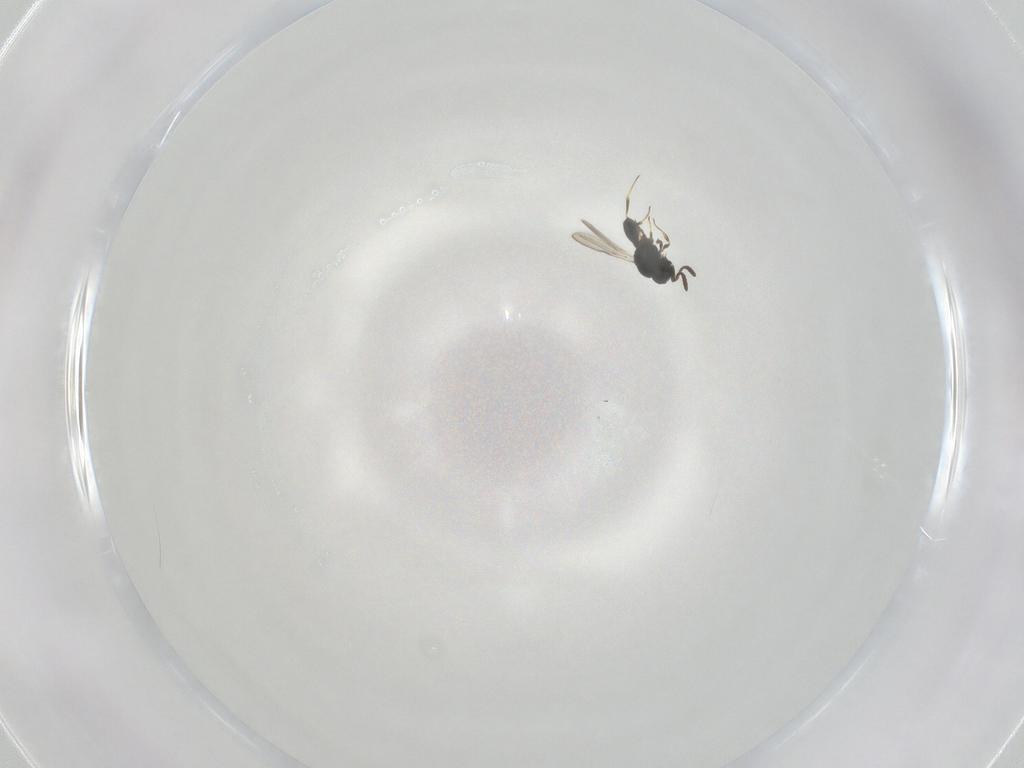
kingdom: Animalia
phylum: Arthropoda
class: Insecta
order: Hymenoptera
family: Scelionidae
